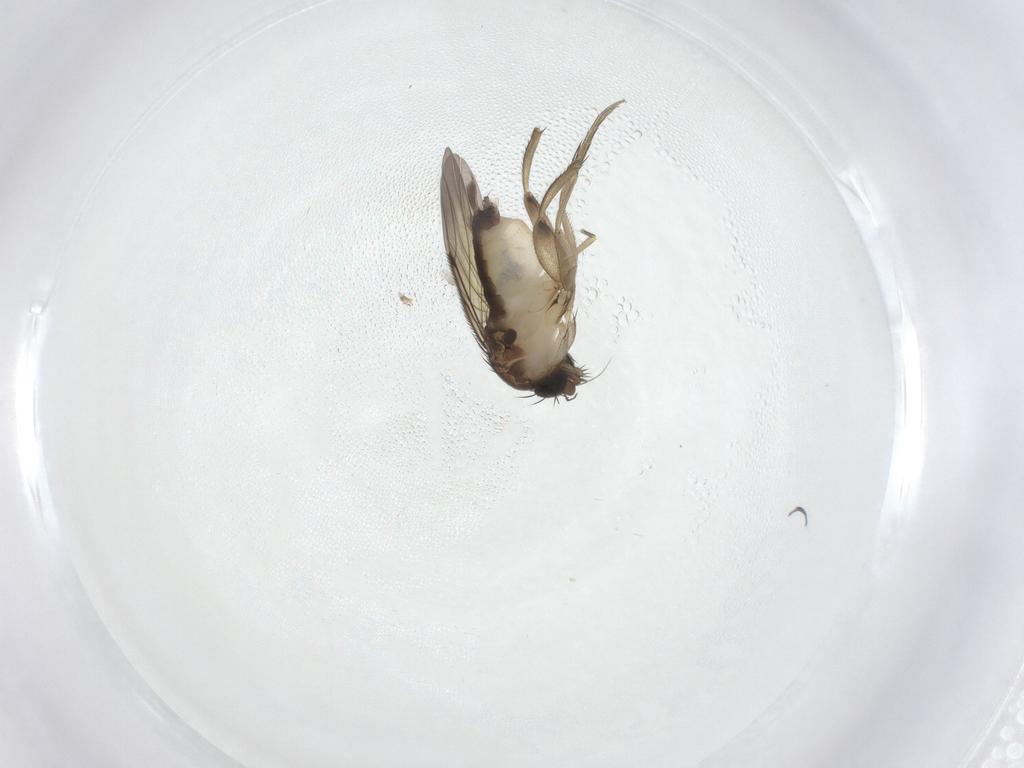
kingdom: Animalia
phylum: Arthropoda
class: Insecta
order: Diptera
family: Phoridae
